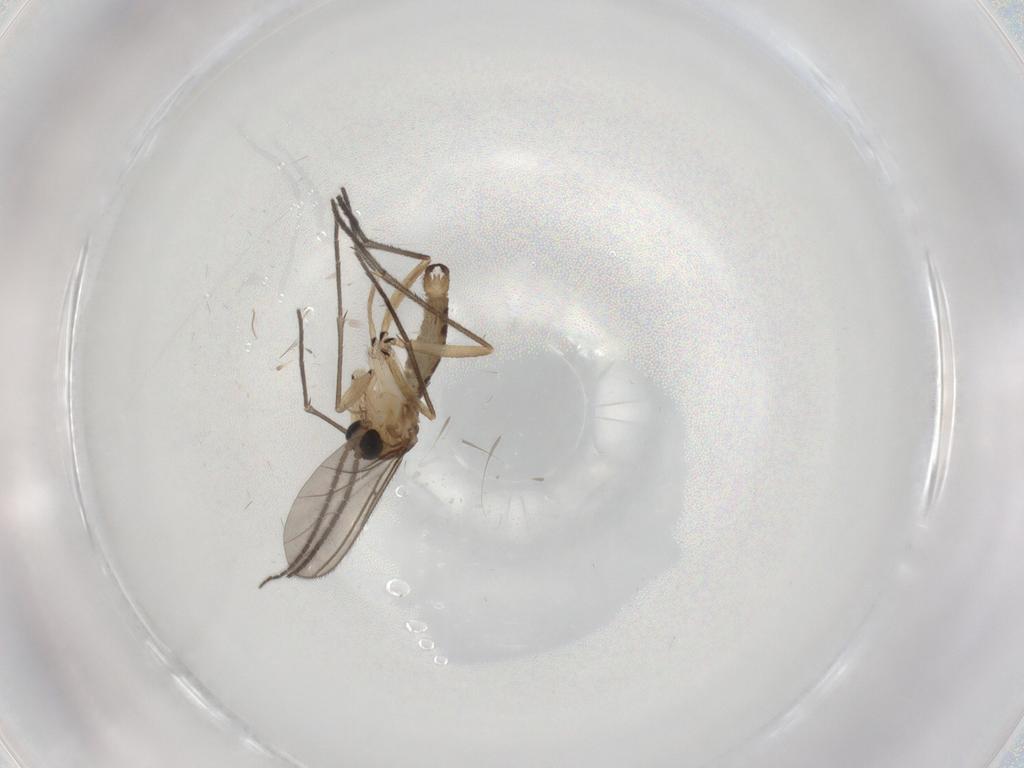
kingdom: Animalia
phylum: Arthropoda
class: Insecta
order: Diptera
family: Sciaridae
